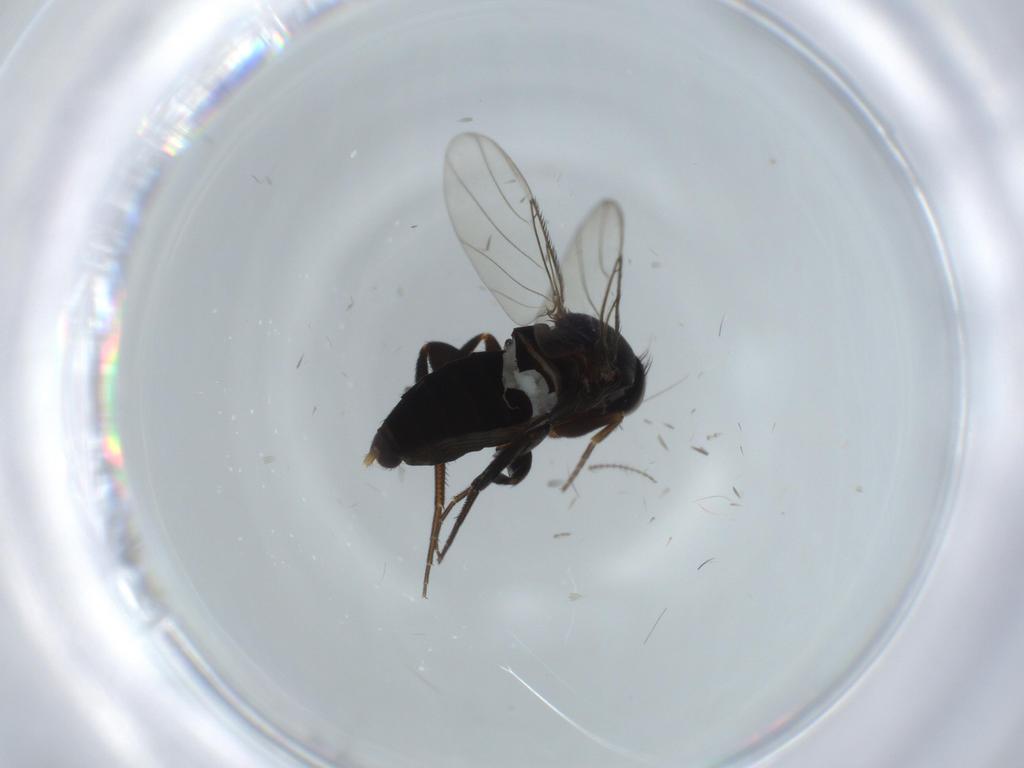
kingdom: Animalia
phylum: Arthropoda
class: Insecta
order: Diptera
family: Phoridae
